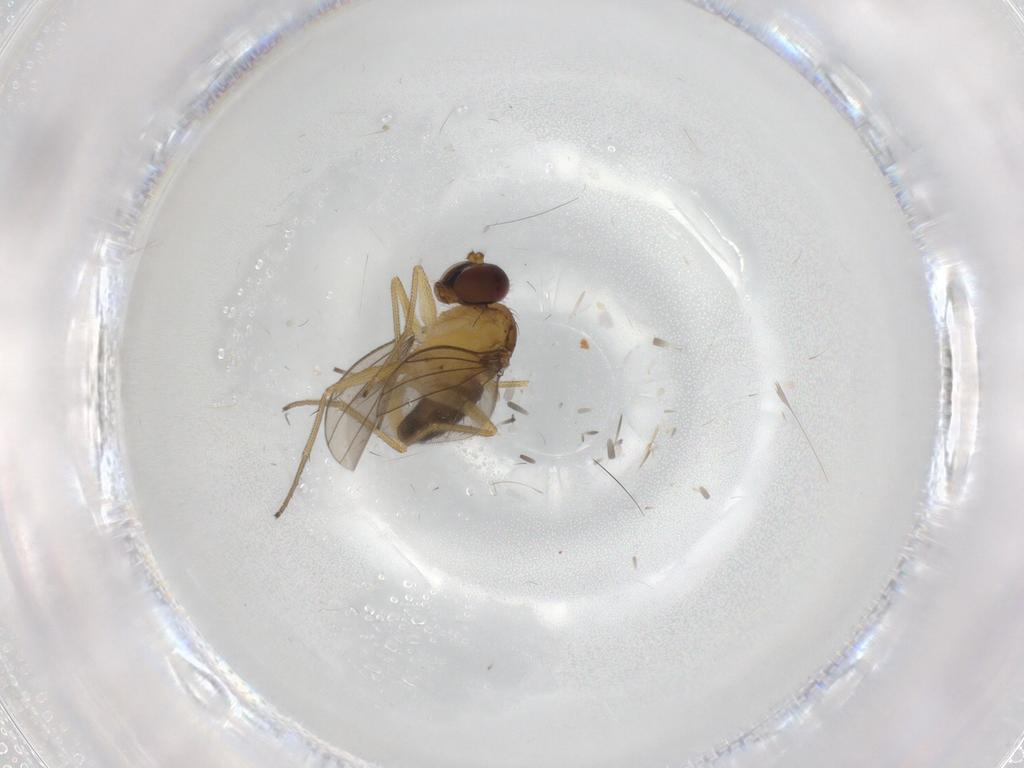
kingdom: Animalia
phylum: Arthropoda
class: Insecta
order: Diptera
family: Dolichopodidae
